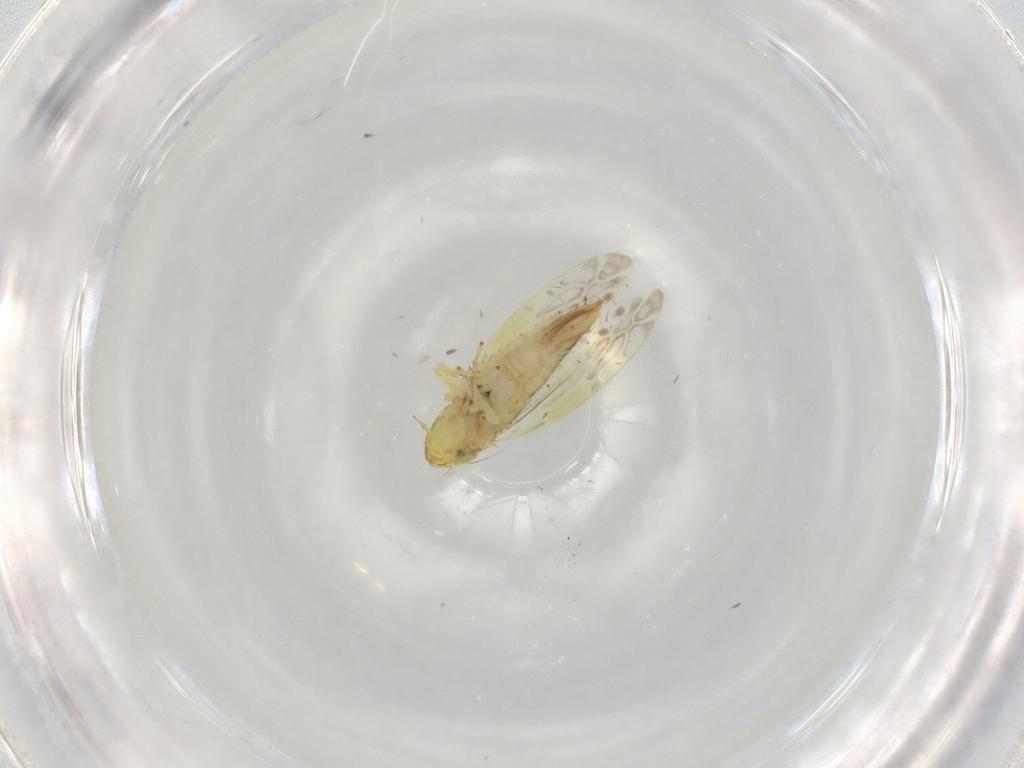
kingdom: Animalia
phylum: Arthropoda
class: Insecta
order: Hemiptera
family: Cicadellidae
